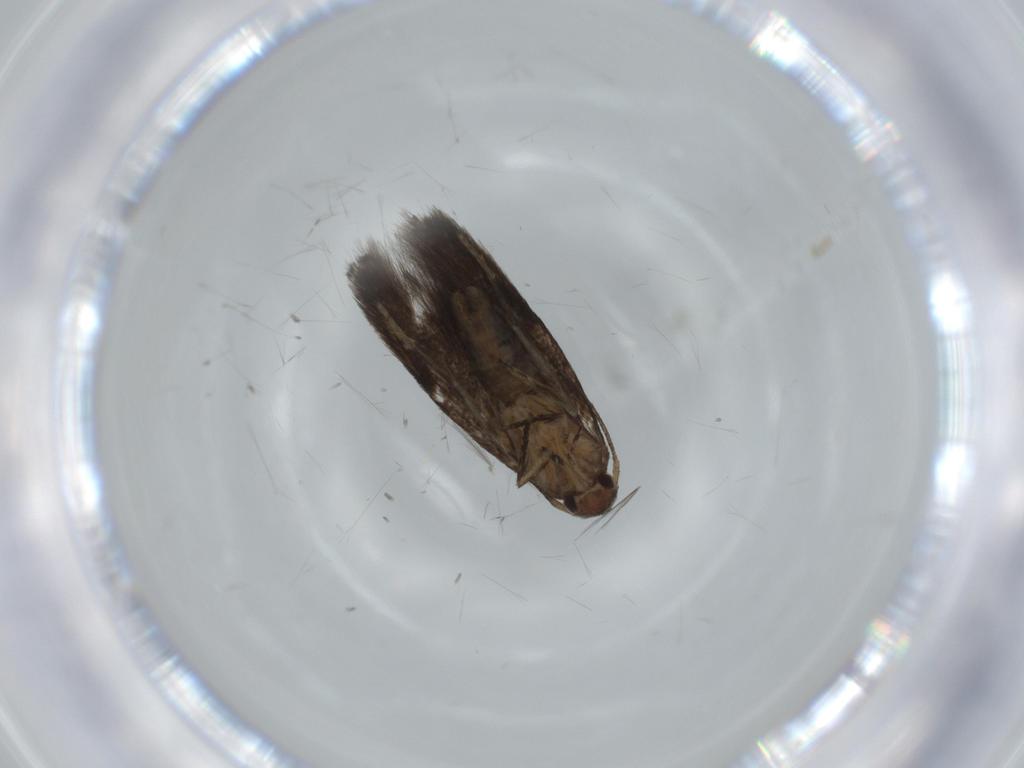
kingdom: Animalia
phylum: Arthropoda
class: Insecta
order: Lepidoptera
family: Elachistidae
